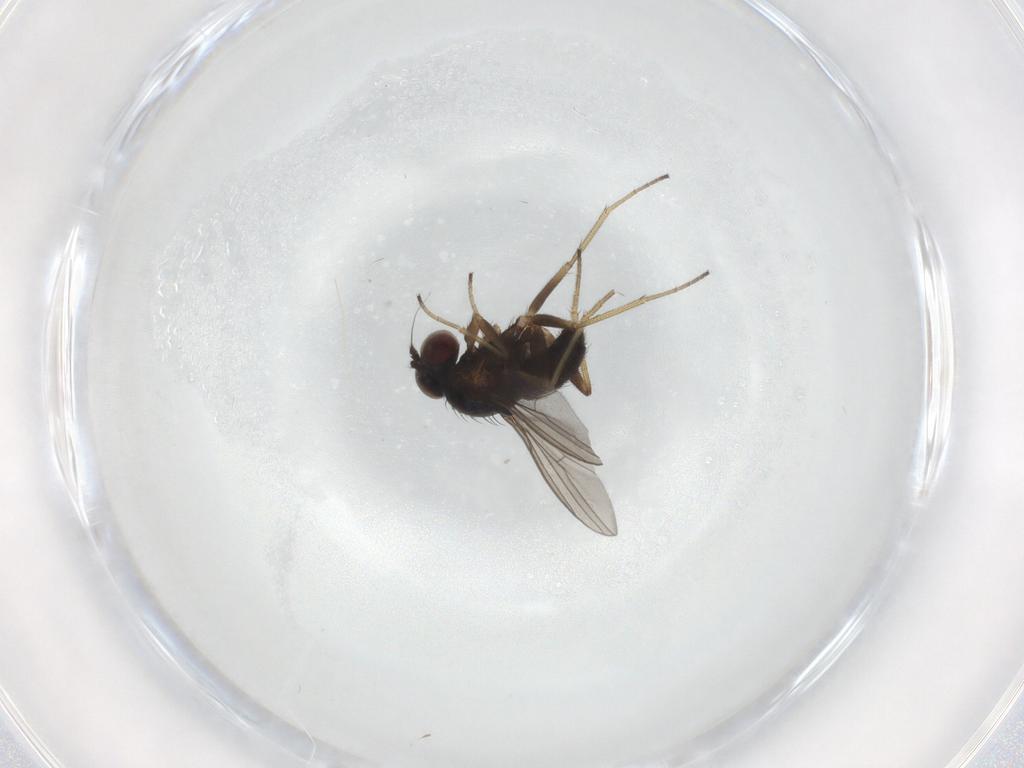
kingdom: Animalia
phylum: Arthropoda
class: Insecta
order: Diptera
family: Dolichopodidae
